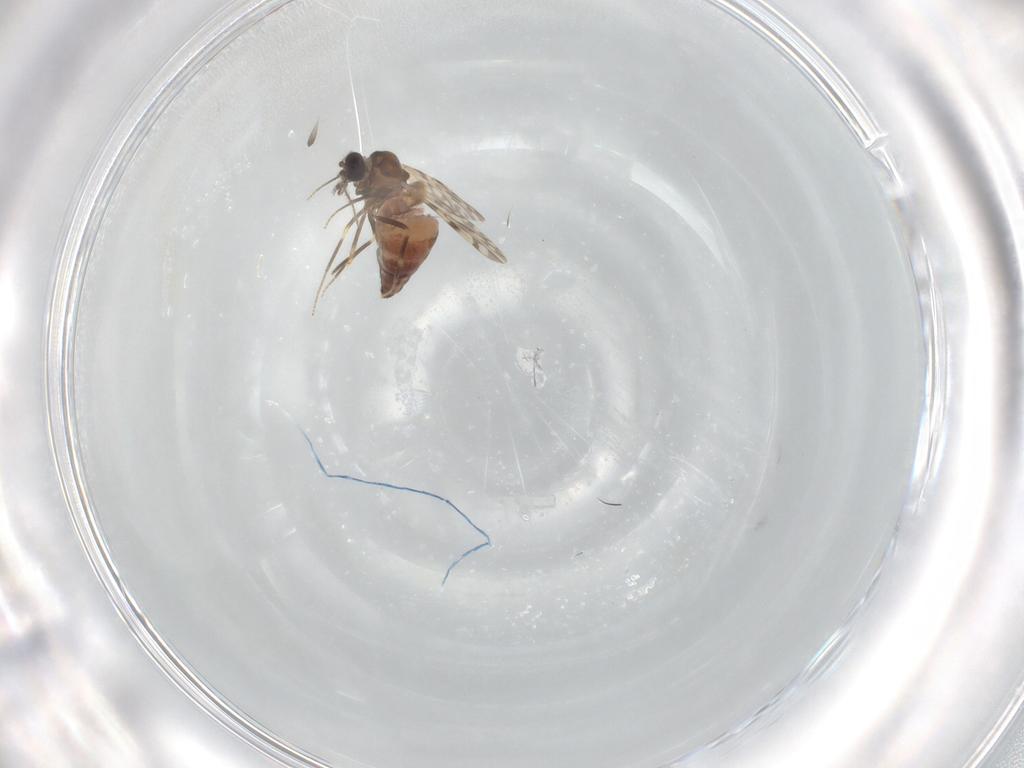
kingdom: Animalia
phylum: Arthropoda
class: Insecta
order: Diptera
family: Ceratopogonidae
